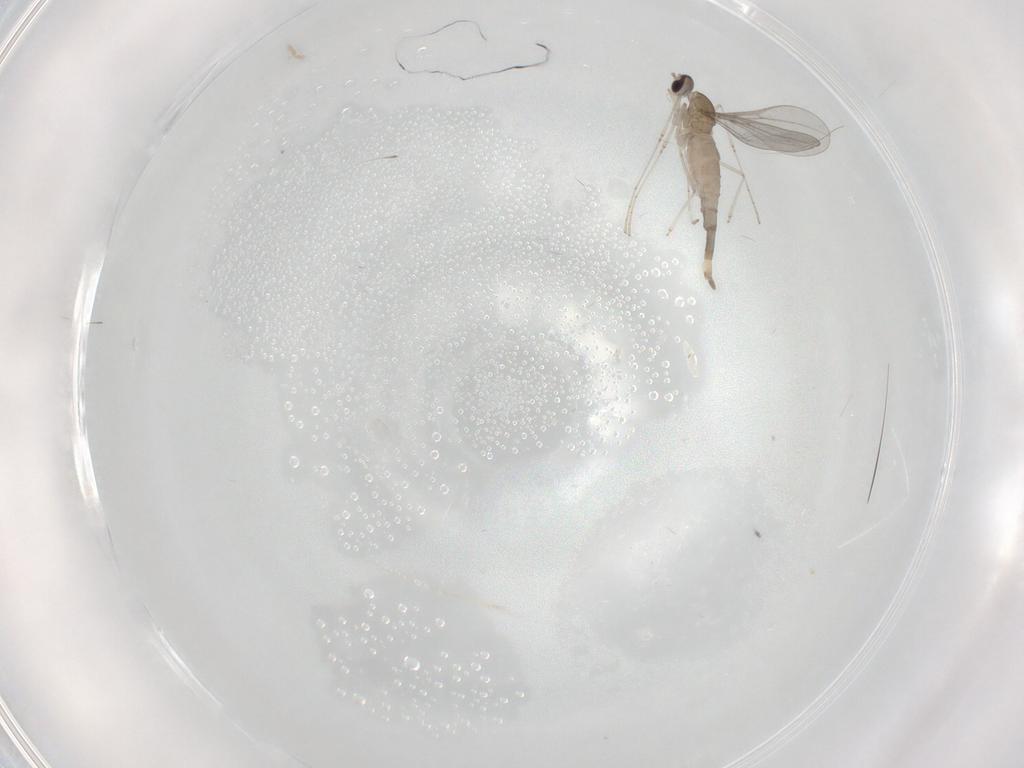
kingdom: Animalia
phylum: Arthropoda
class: Insecta
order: Diptera
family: Cecidomyiidae
